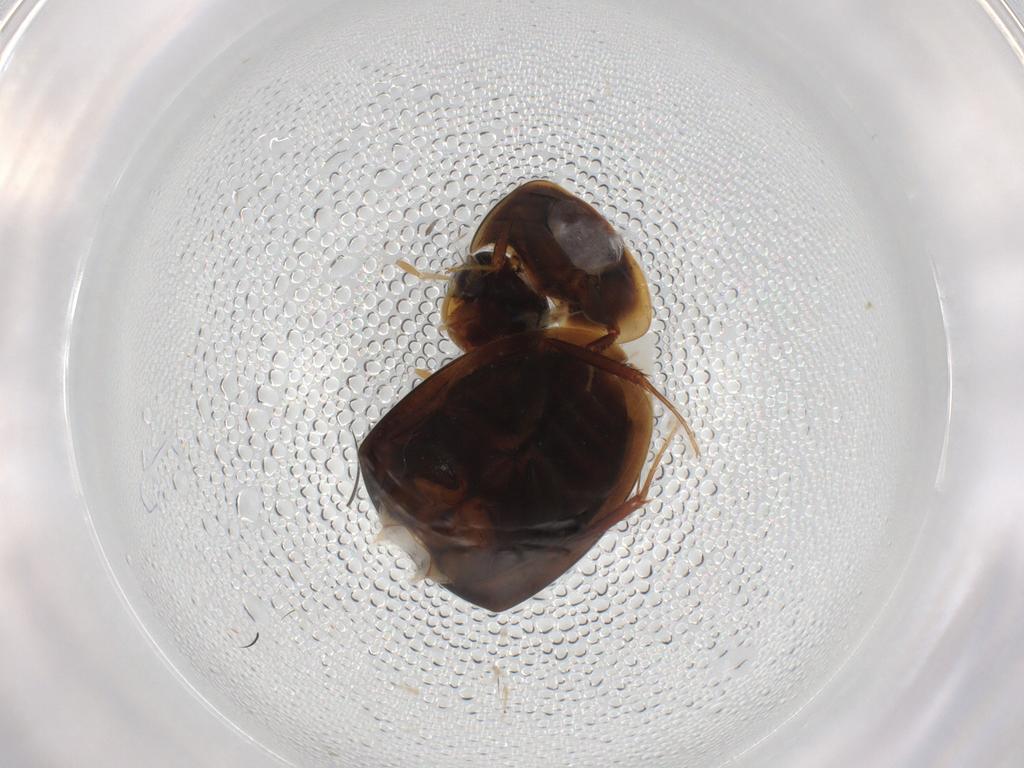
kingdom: Animalia
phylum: Arthropoda
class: Insecta
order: Coleoptera
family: Hydrophilidae
